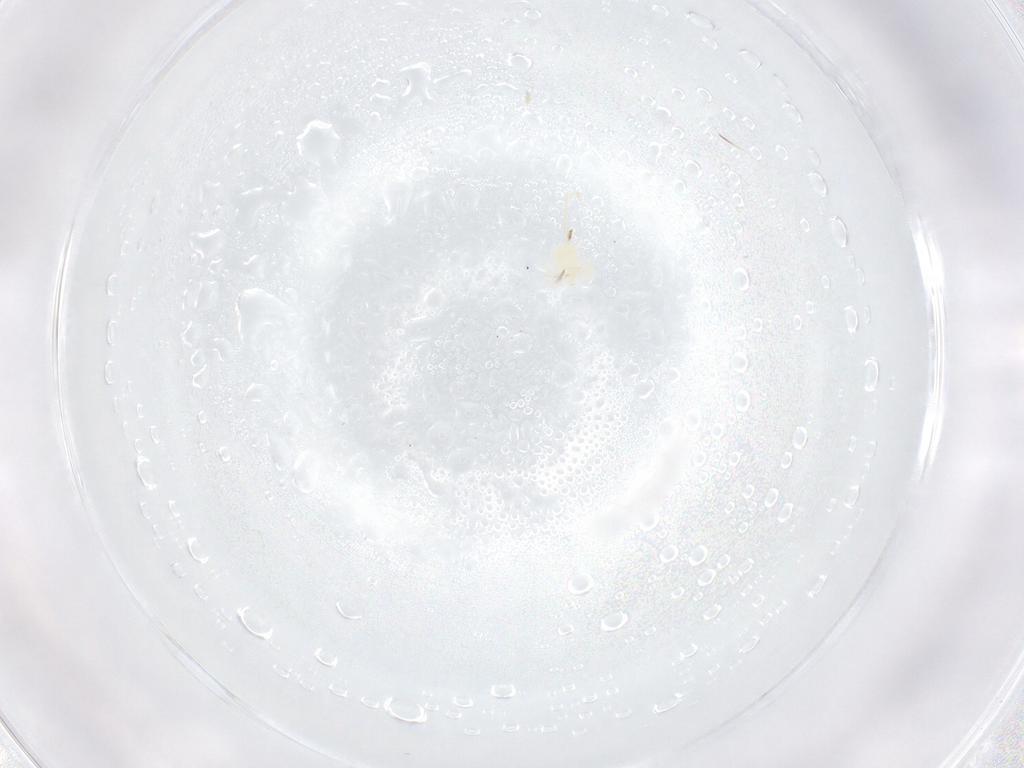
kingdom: Animalia
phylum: Arthropoda
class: Arachnida
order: Trombidiformes
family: Anystidae
